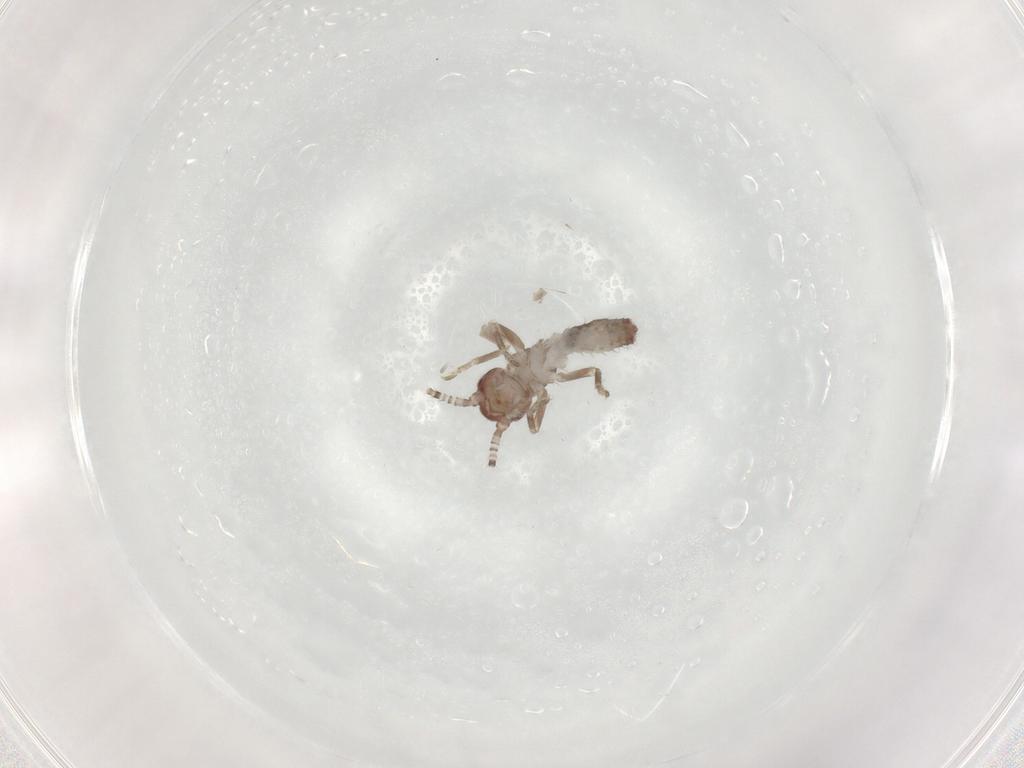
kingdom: Animalia
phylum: Arthropoda
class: Insecta
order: Orthoptera
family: Mogoplistidae
